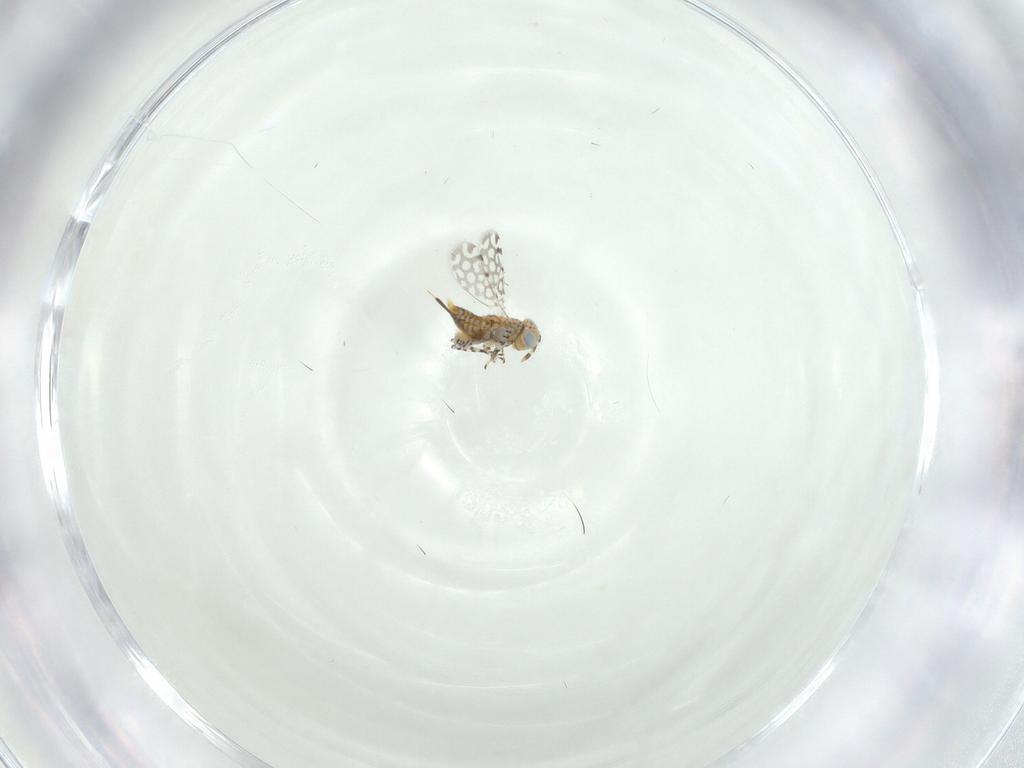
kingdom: Animalia
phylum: Arthropoda
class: Insecta
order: Hymenoptera
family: Aphelinidae
